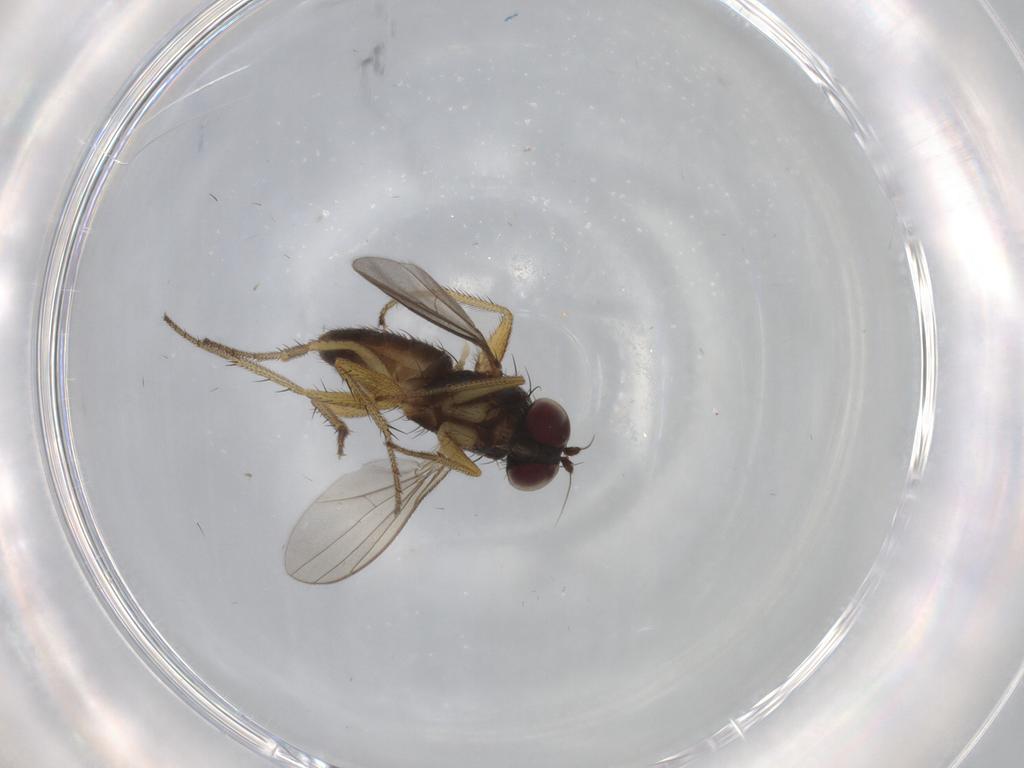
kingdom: Animalia
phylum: Arthropoda
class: Insecta
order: Diptera
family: Dolichopodidae
